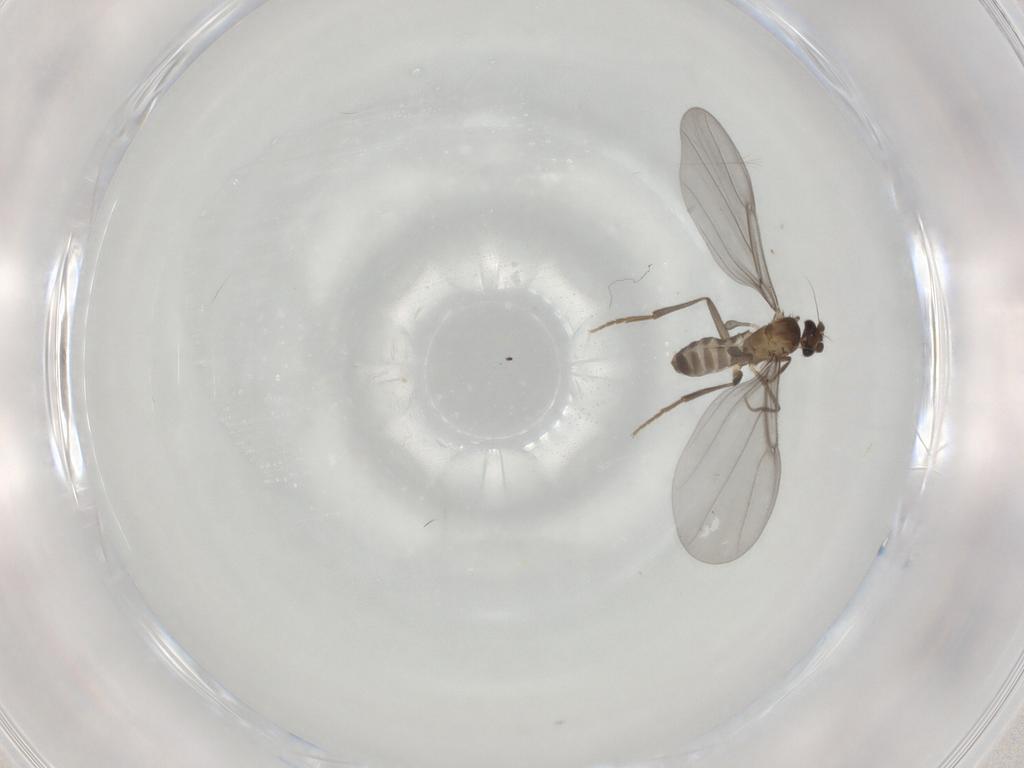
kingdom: Animalia
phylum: Arthropoda
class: Insecta
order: Diptera
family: Phoridae
